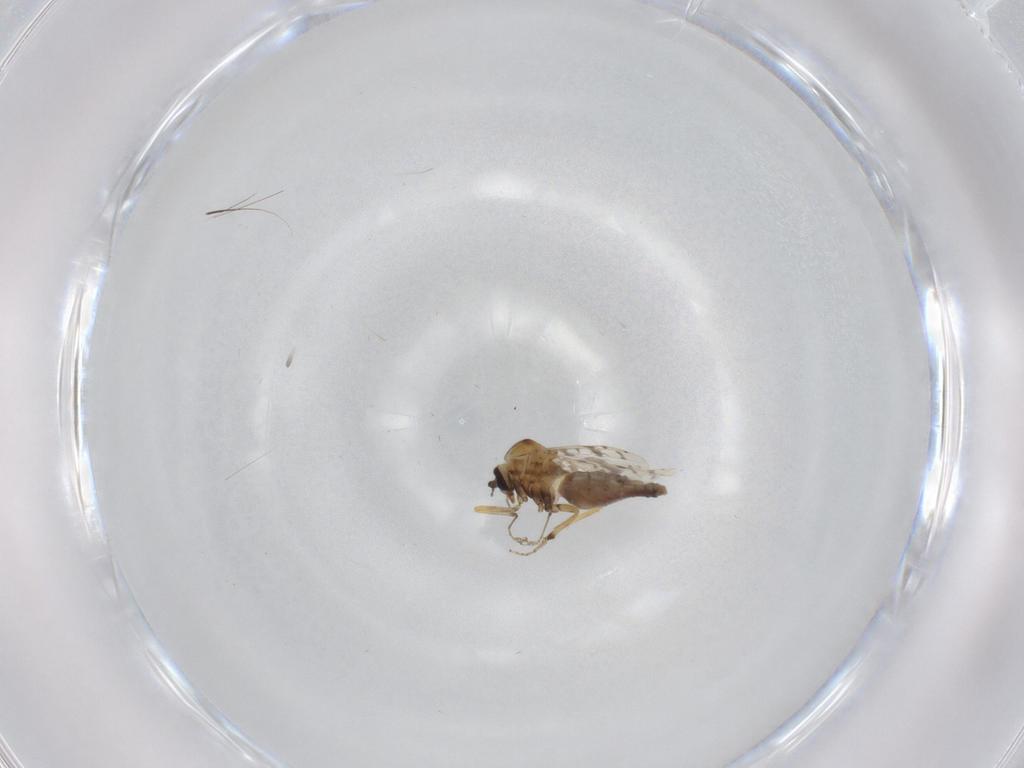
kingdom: Animalia
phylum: Arthropoda
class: Insecta
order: Diptera
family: Ceratopogonidae
